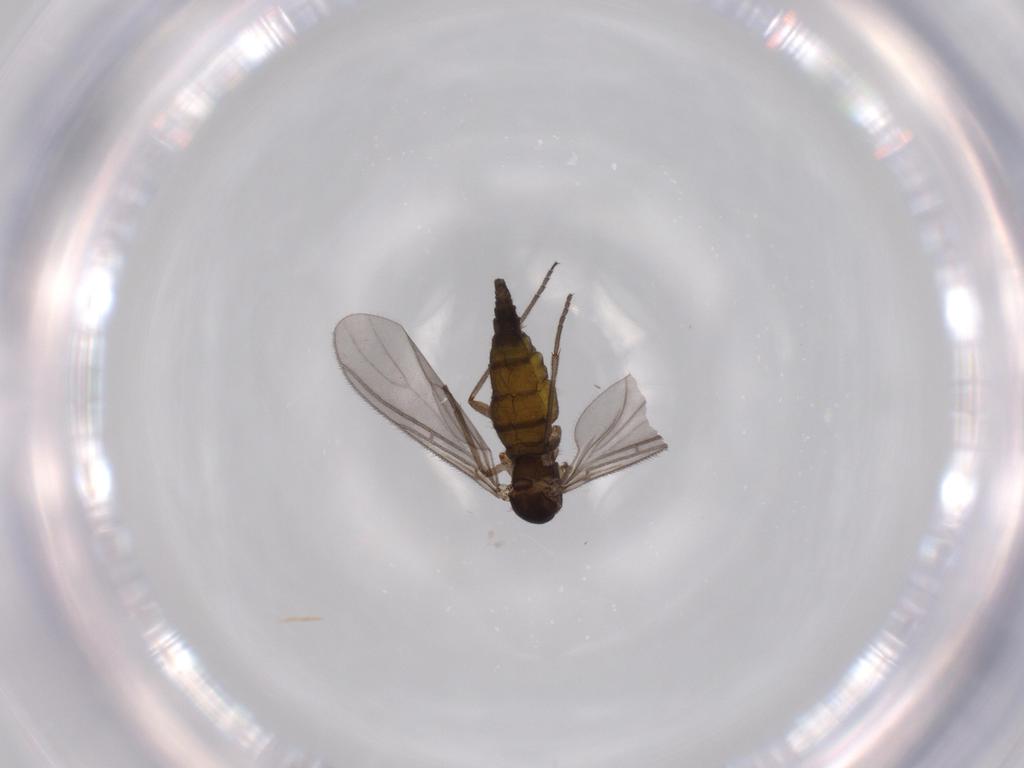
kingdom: Animalia
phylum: Arthropoda
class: Insecta
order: Diptera
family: Sciaridae
